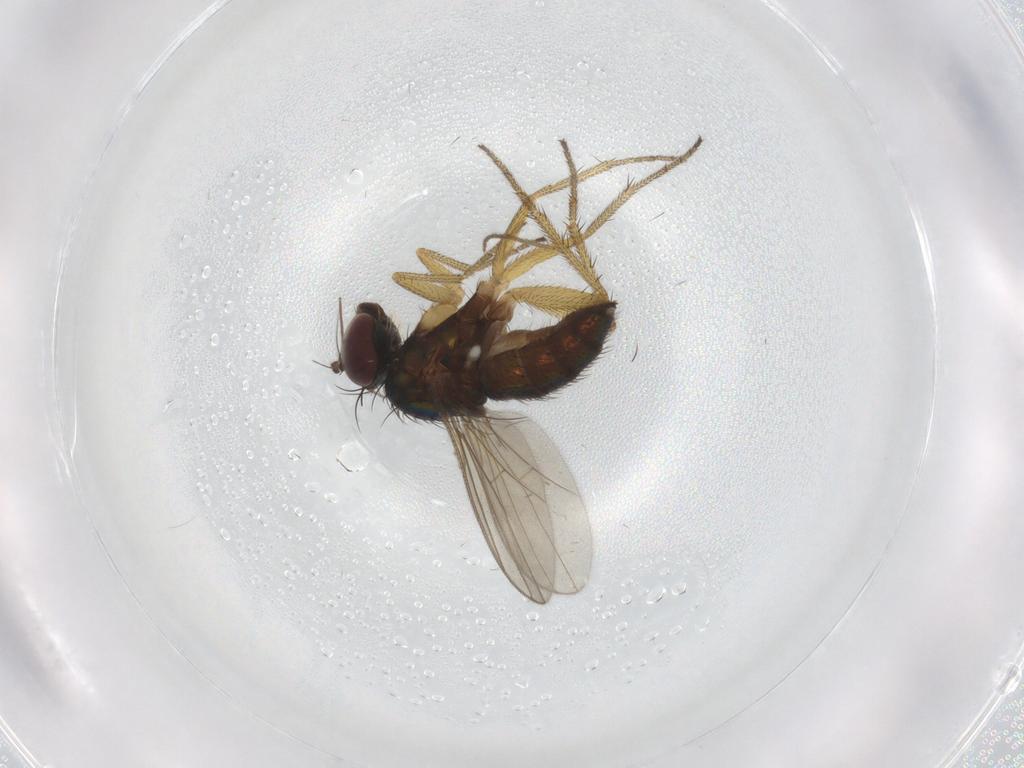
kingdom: Animalia
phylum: Arthropoda
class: Insecta
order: Diptera
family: Chironomidae
